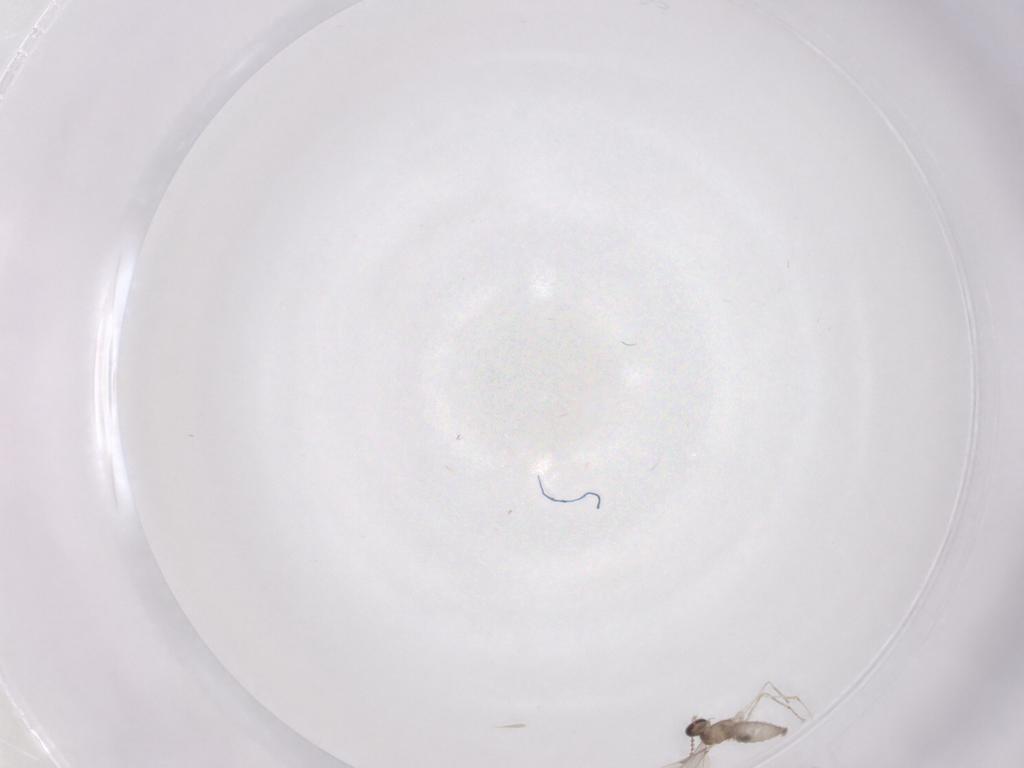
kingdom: Animalia
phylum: Arthropoda
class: Insecta
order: Diptera
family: Cecidomyiidae
